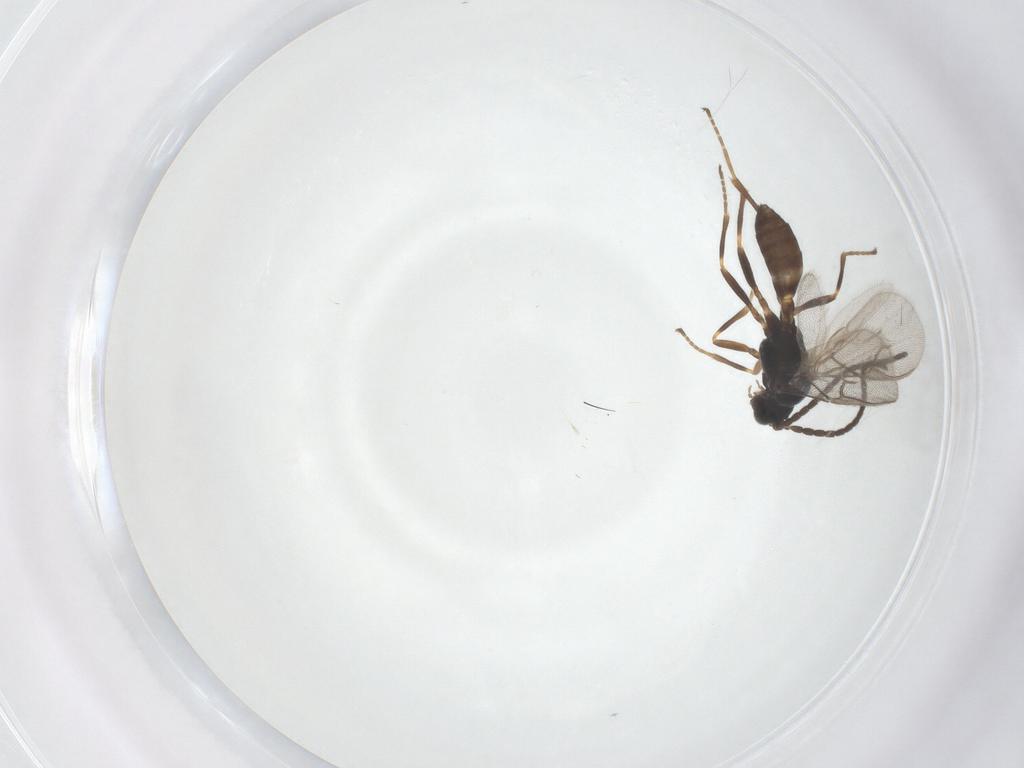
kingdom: Animalia
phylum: Arthropoda
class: Insecta
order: Hymenoptera
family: Braconidae
